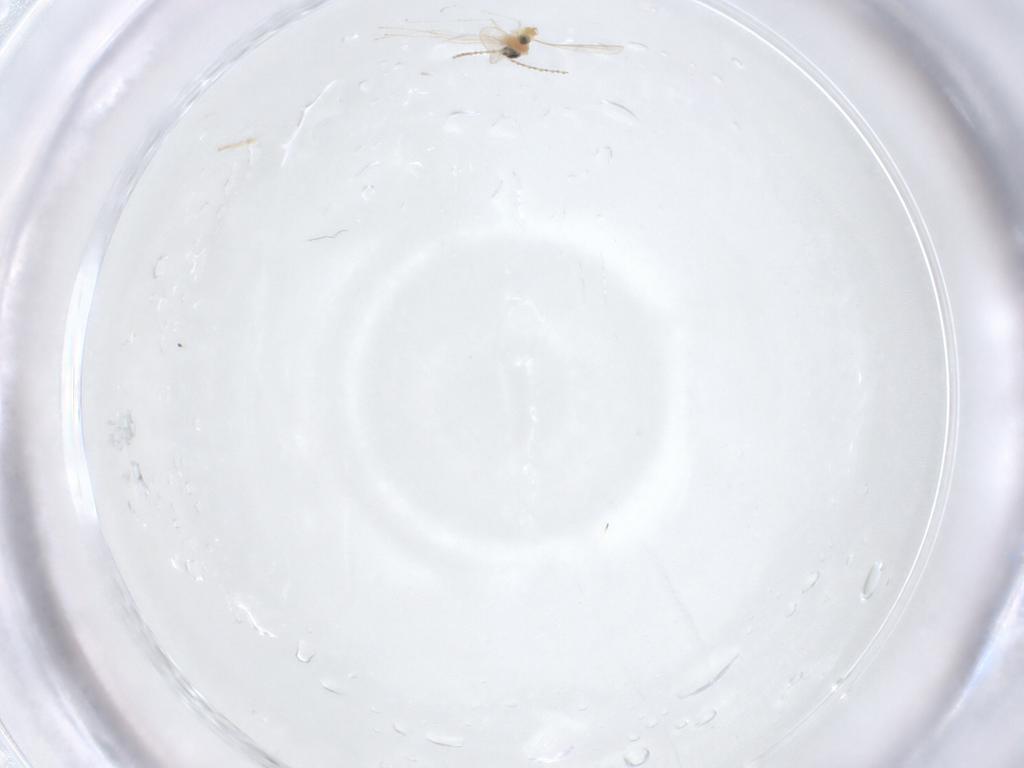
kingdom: Animalia
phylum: Arthropoda
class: Insecta
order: Diptera
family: Cecidomyiidae
